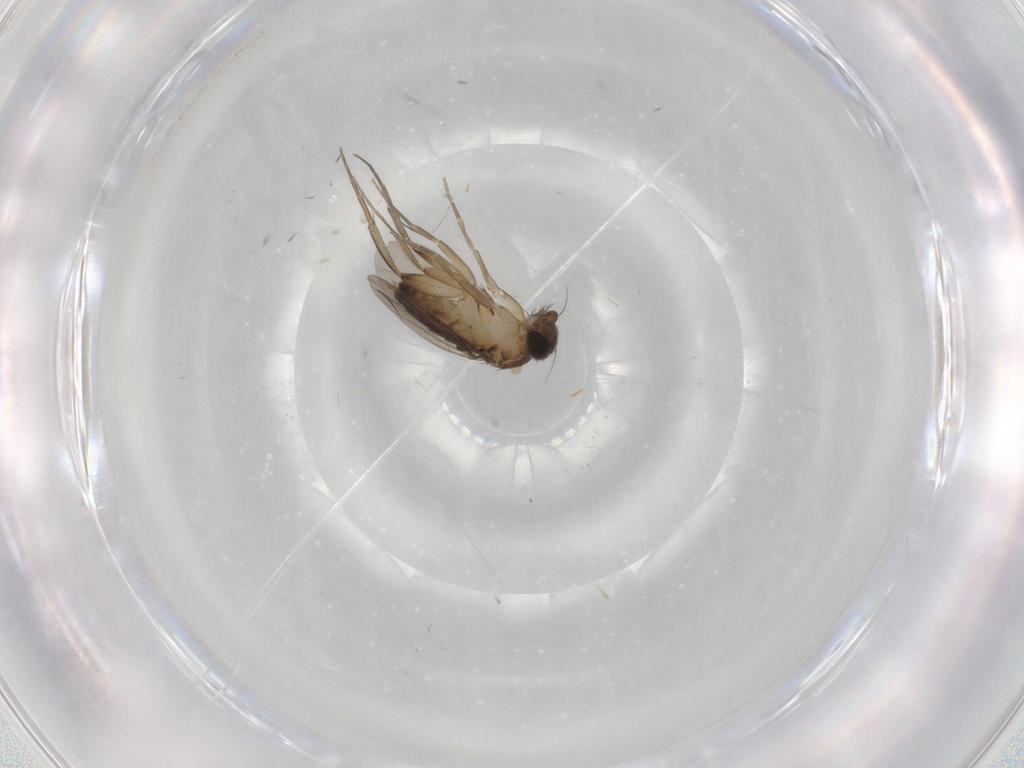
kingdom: Animalia
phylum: Arthropoda
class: Insecta
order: Diptera
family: Phoridae
